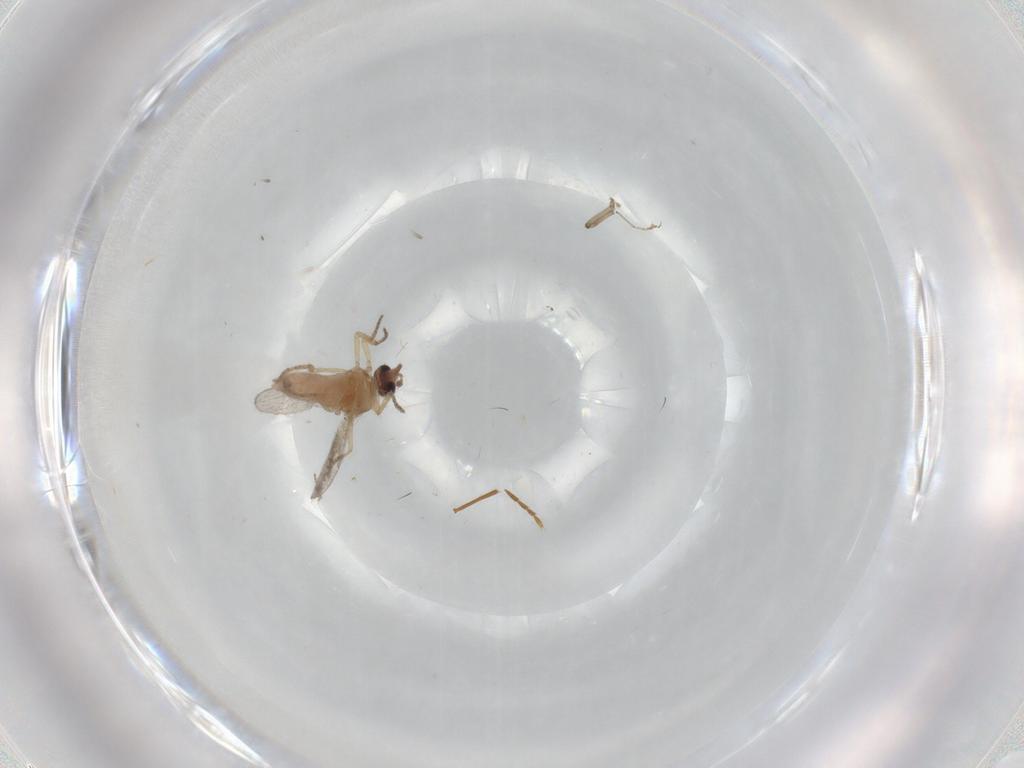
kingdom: Animalia
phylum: Arthropoda
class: Insecta
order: Diptera
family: Ceratopogonidae
